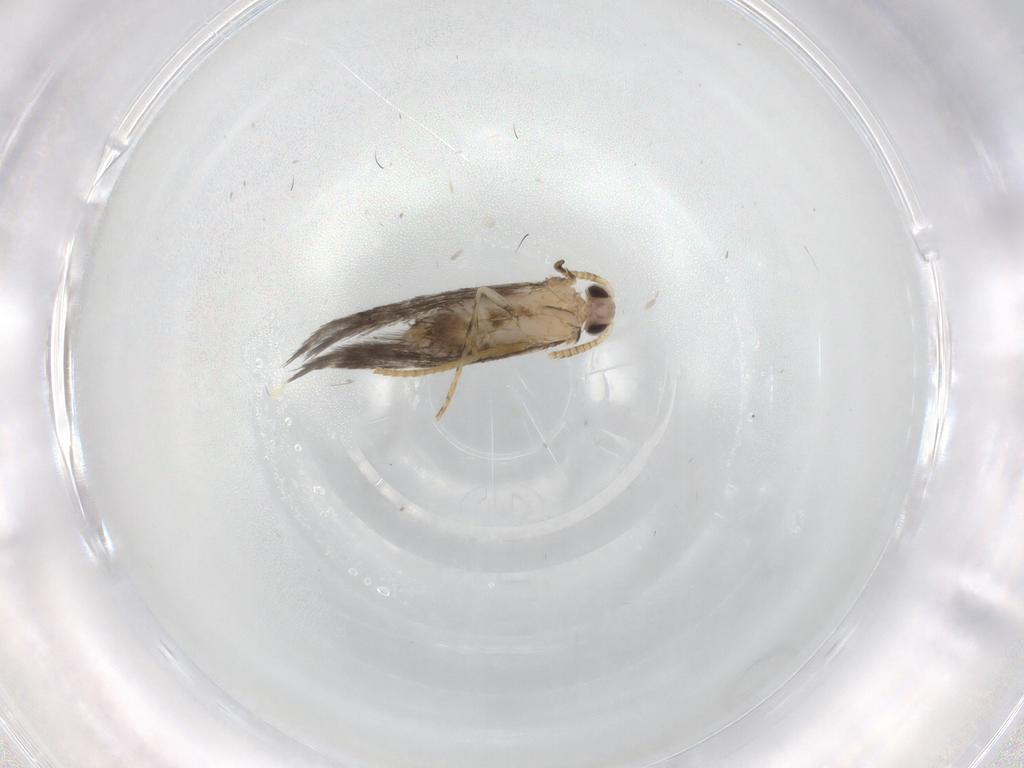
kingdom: Animalia
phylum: Arthropoda
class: Insecta
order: Lepidoptera
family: Tineidae
